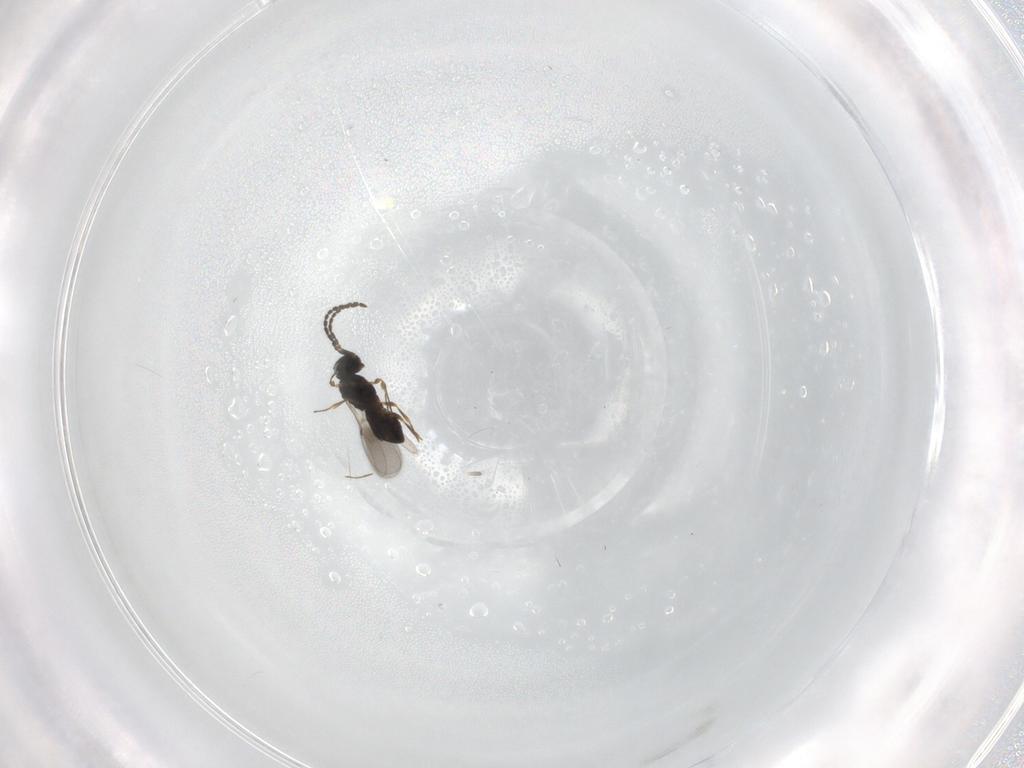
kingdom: Animalia
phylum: Arthropoda
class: Insecta
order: Hymenoptera
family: Scelionidae
